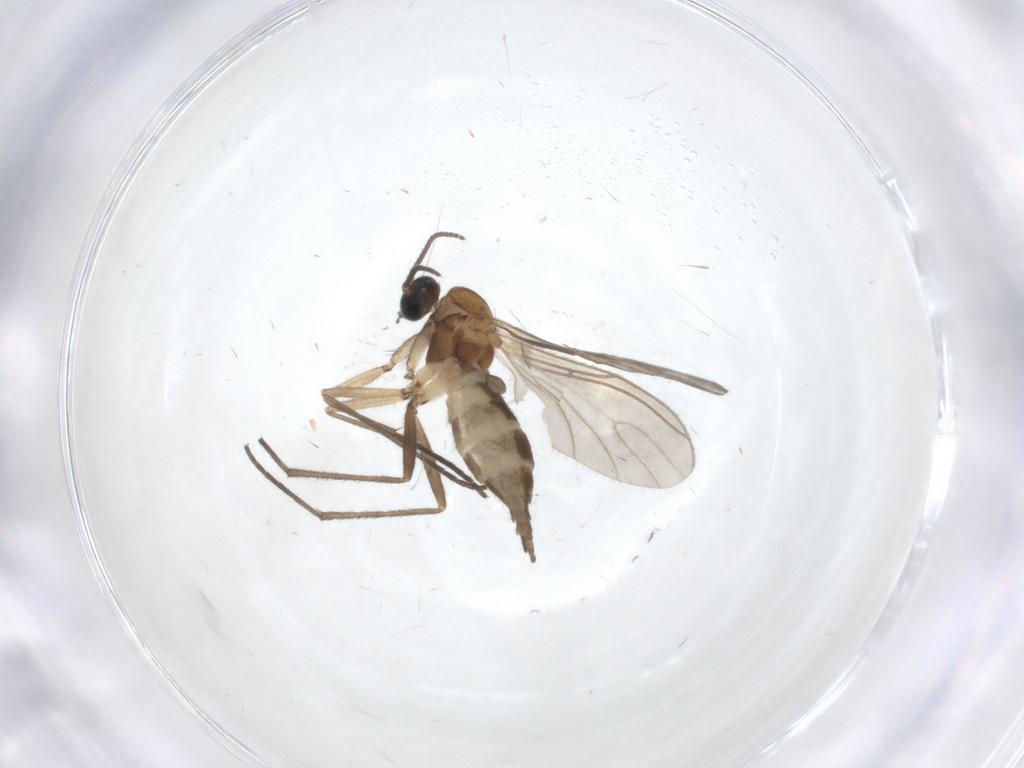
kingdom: Animalia
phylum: Arthropoda
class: Insecta
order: Diptera
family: Sciaridae
